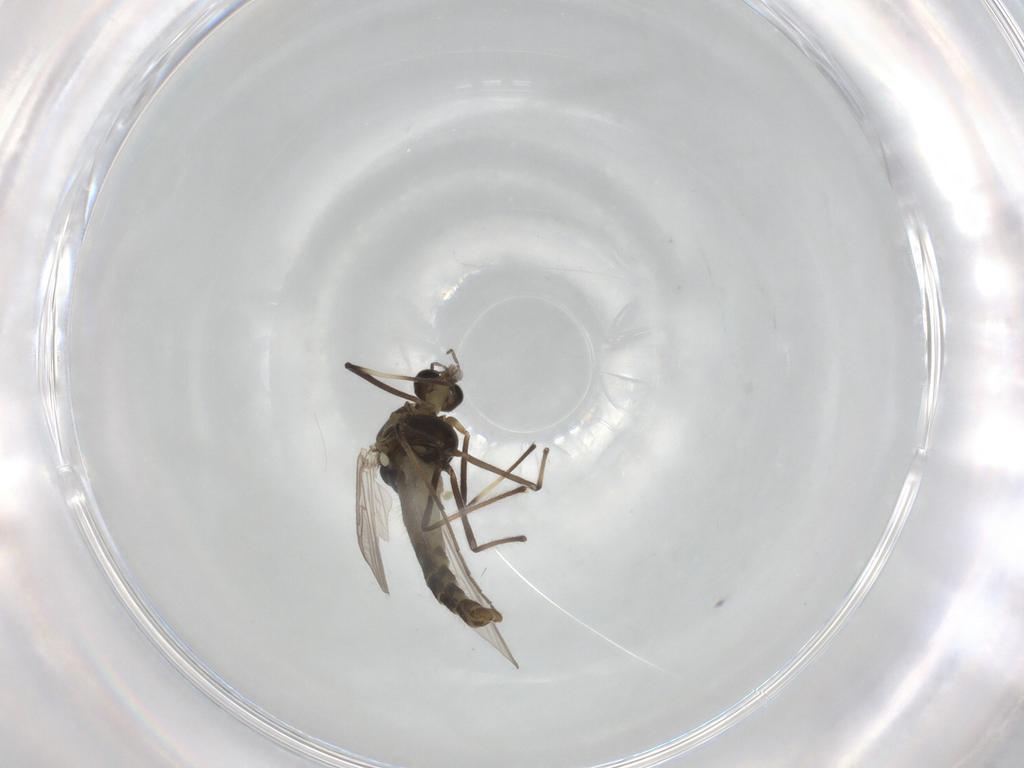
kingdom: Animalia
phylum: Arthropoda
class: Insecta
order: Diptera
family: Chironomidae
